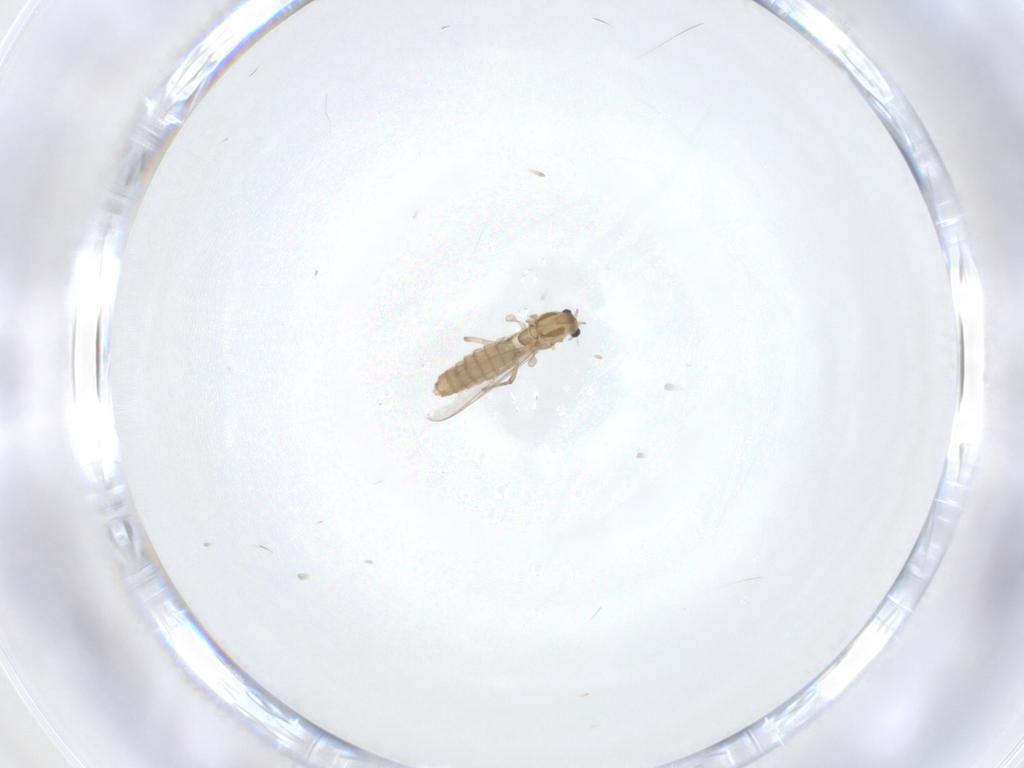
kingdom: Animalia
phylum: Arthropoda
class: Insecta
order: Diptera
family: Chironomidae
